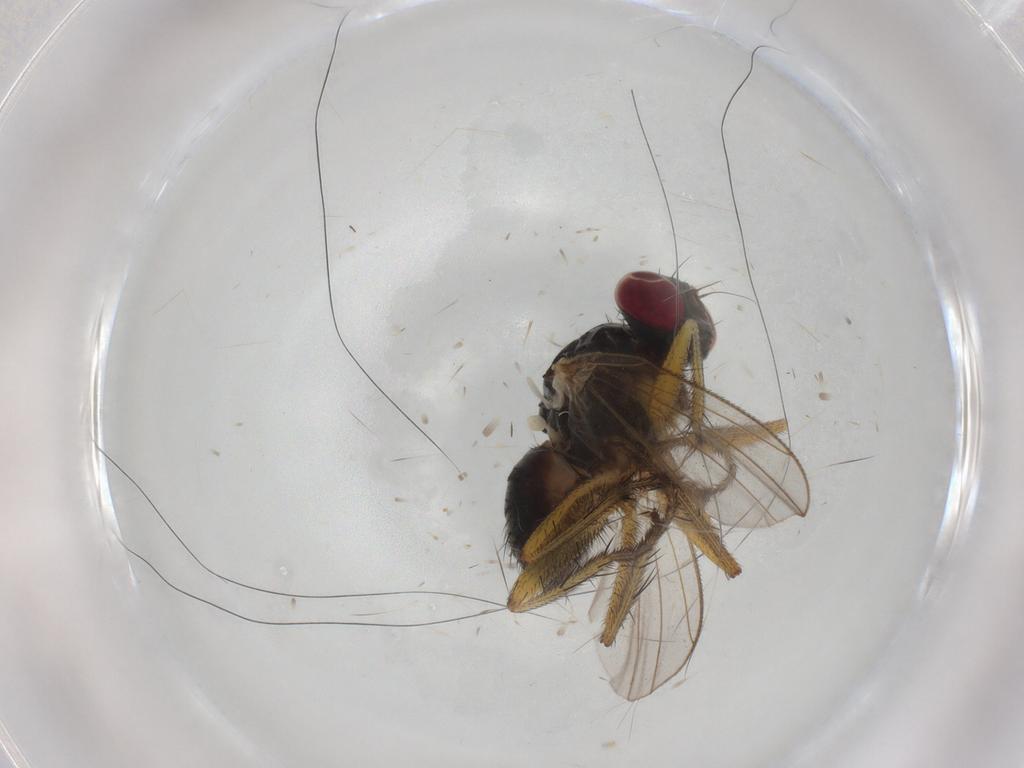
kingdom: Animalia
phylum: Arthropoda
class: Insecta
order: Diptera
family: Muscidae
